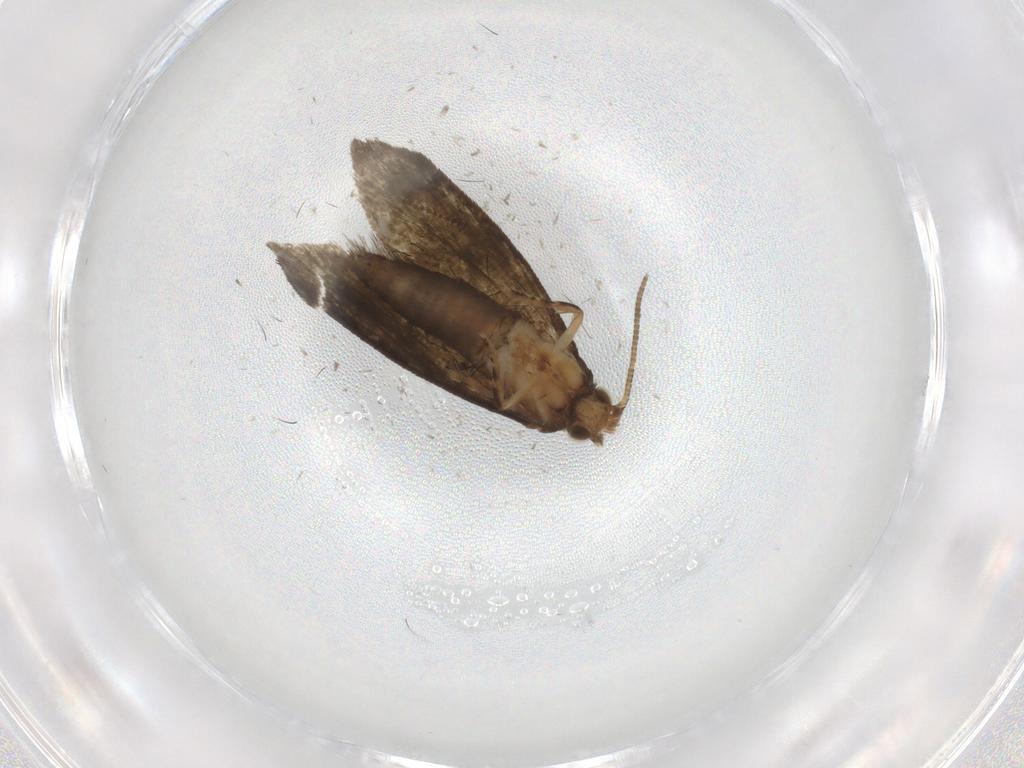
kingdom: Animalia
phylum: Arthropoda
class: Insecta
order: Lepidoptera
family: Crambidae
